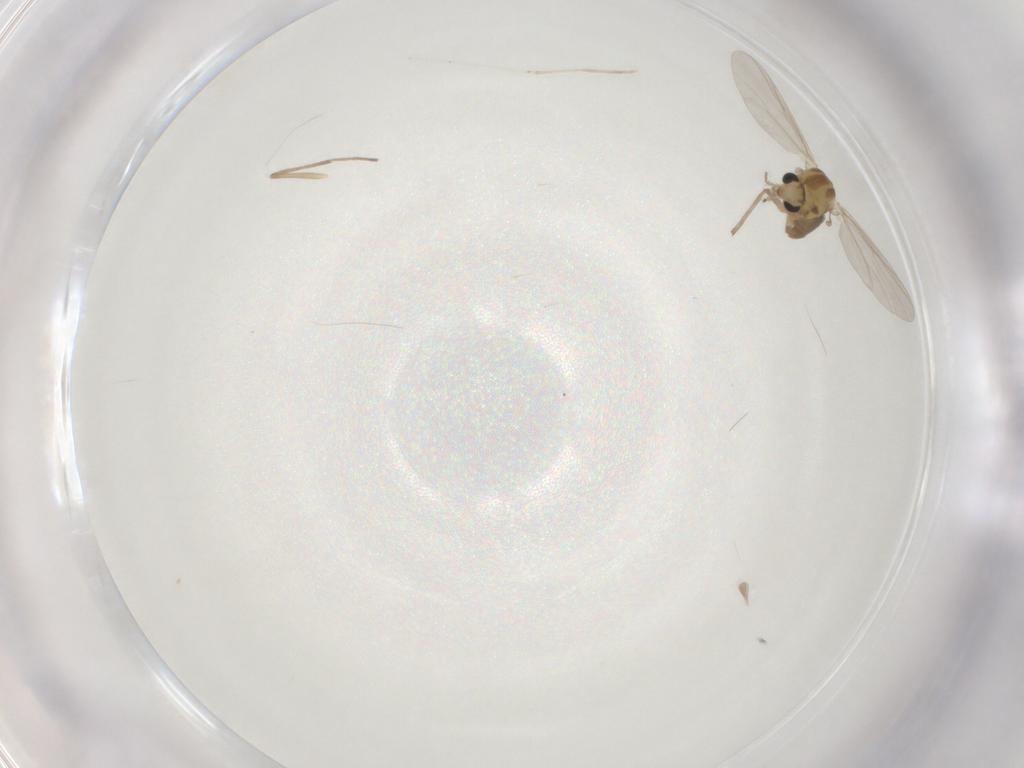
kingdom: Animalia
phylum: Arthropoda
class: Insecta
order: Diptera
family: Chironomidae
